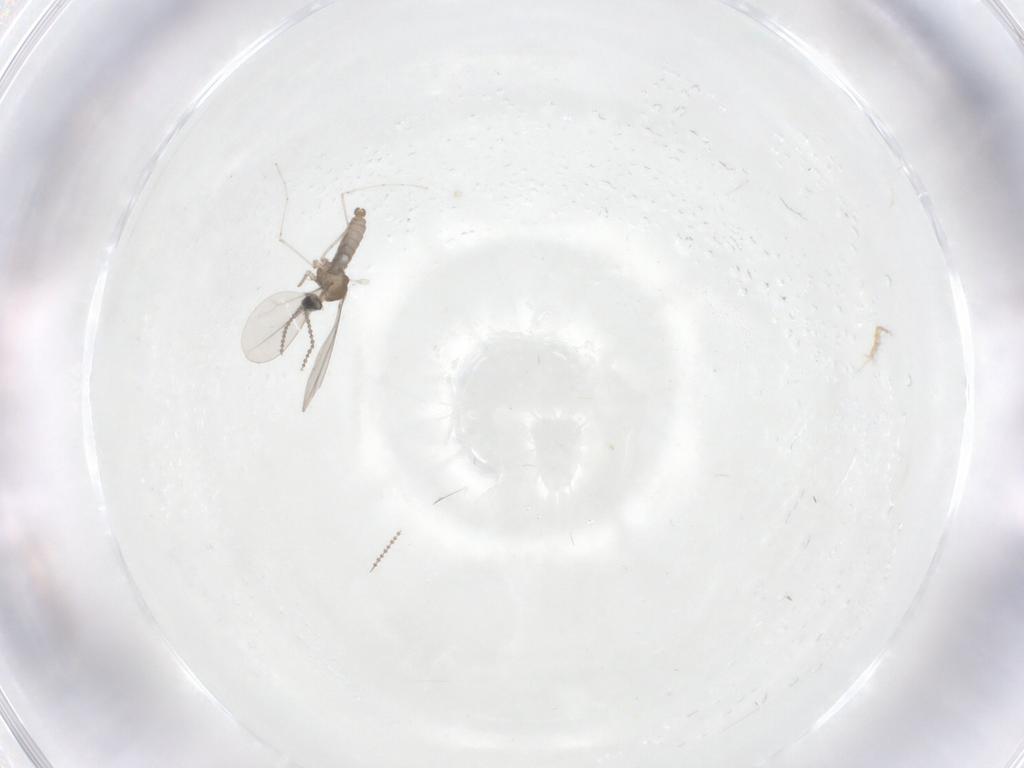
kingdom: Animalia
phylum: Arthropoda
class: Insecta
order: Diptera
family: Cecidomyiidae
